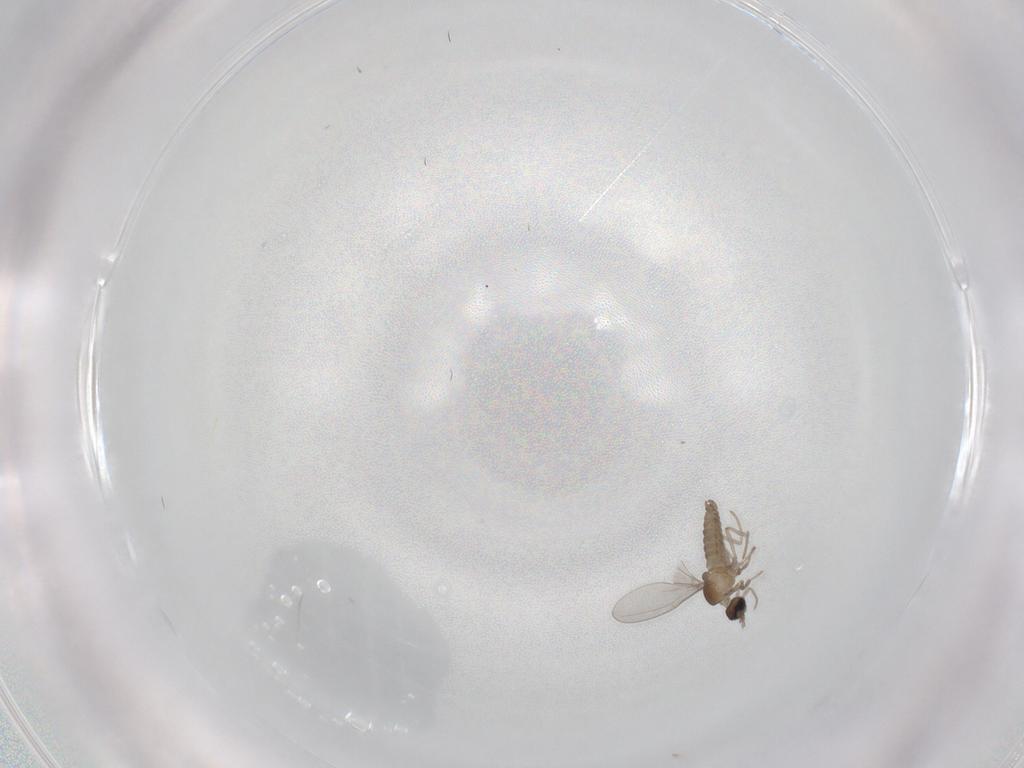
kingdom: Animalia
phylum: Arthropoda
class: Insecta
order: Diptera
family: Cecidomyiidae
